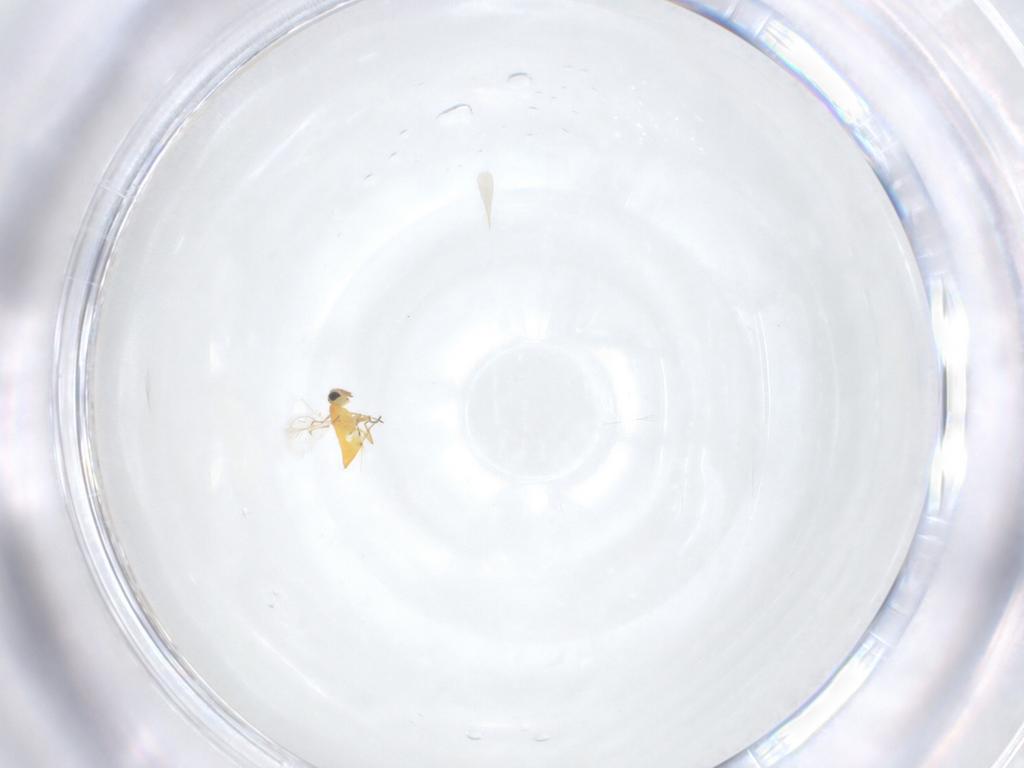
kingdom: Animalia
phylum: Arthropoda
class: Insecta
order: Hymenoptera
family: Trichogrammatidae
